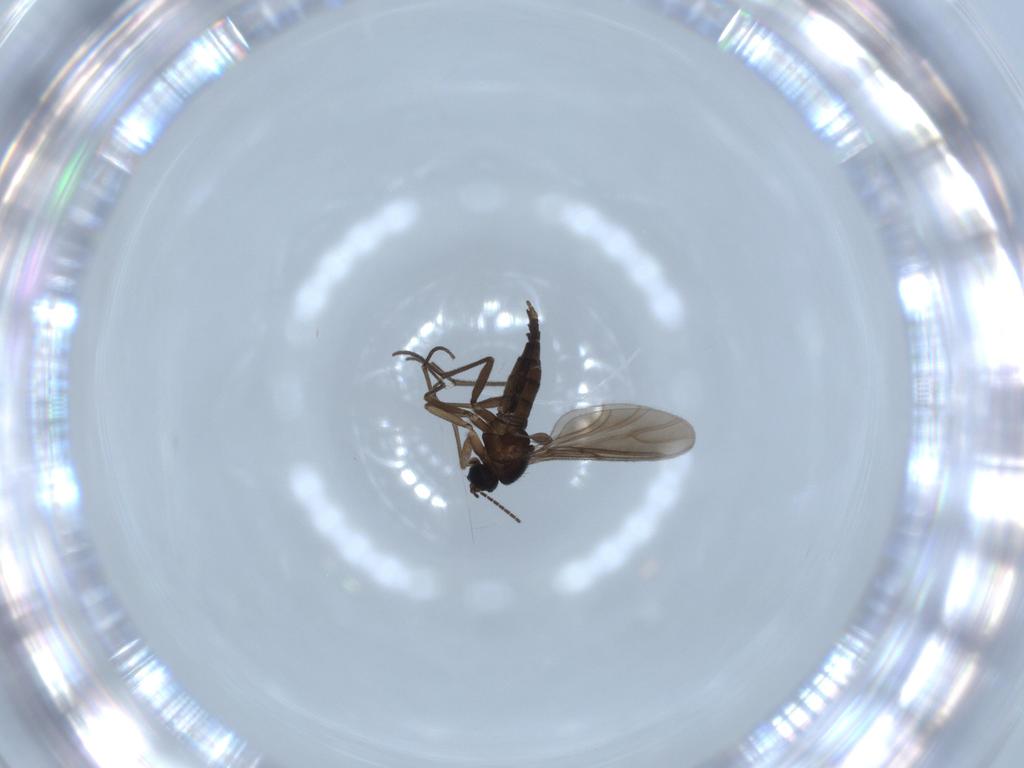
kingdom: Animalia
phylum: Arthropoda
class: Insecta
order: Diptera
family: Sciaridae
